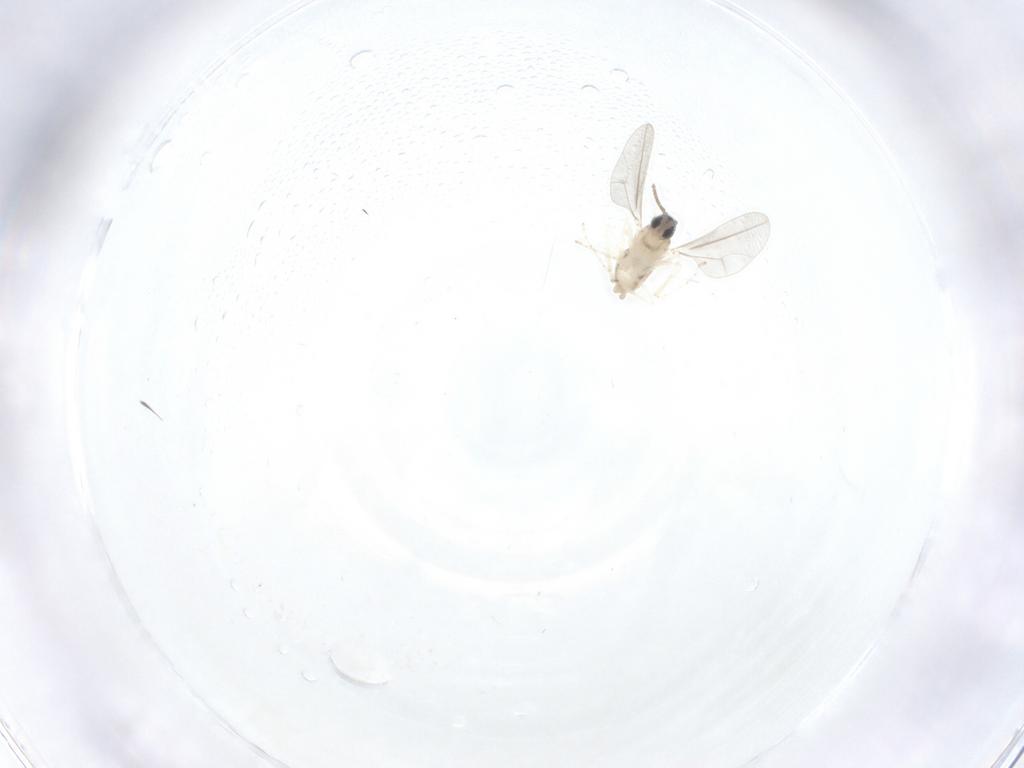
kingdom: Animalia
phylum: Arthropoda
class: Insecta
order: Diptera
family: Cecidomyiidae
